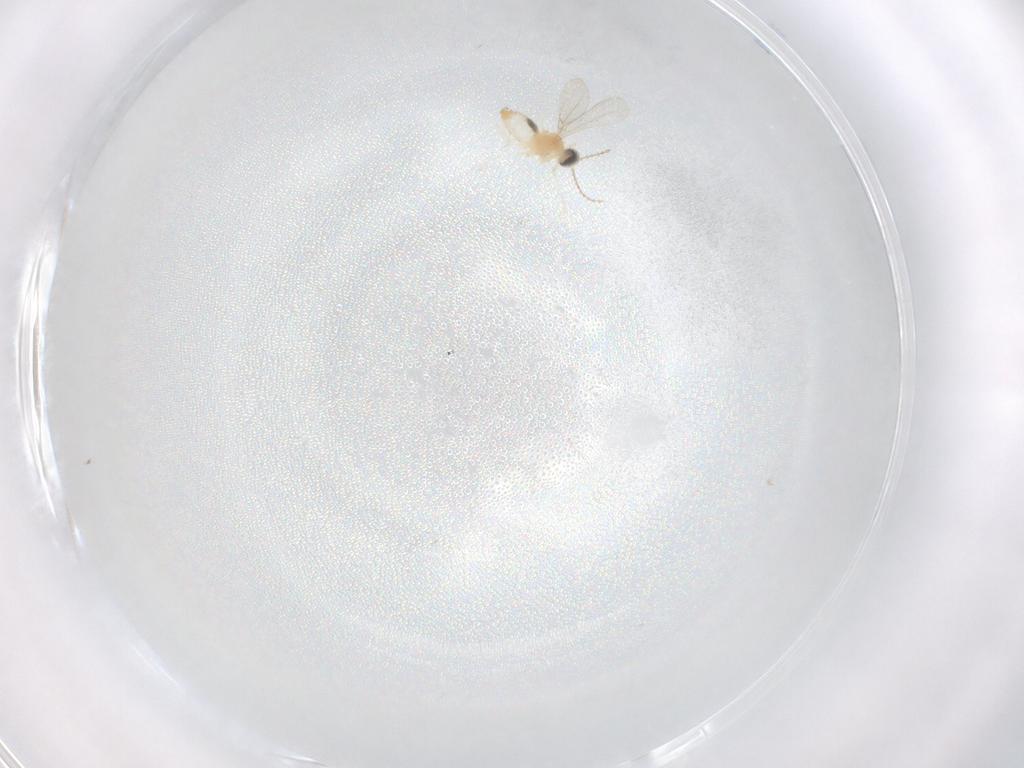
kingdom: Animalia
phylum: Arthropoda
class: Insecta
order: Diptera
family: Cecidomyiidae
